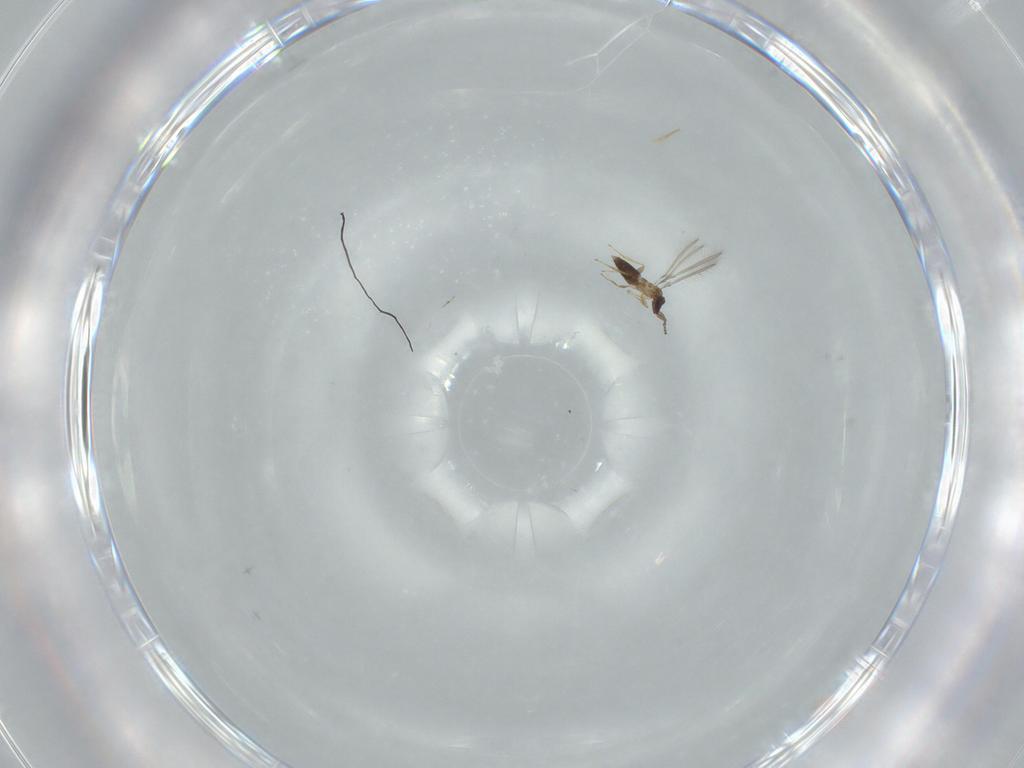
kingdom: Animalia
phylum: Arthropoda
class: Insecta
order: Hymenoptera
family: Mymaridae
